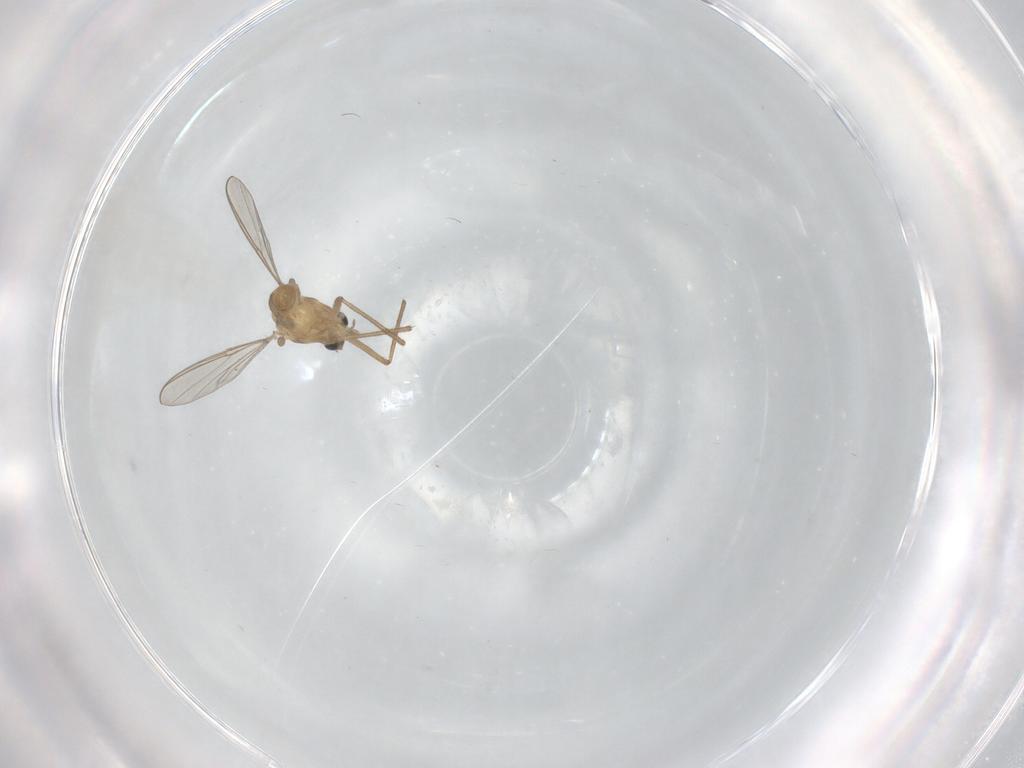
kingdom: Animalia
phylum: Arthropoda
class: Insecta
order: Diptera
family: Chironomidae
